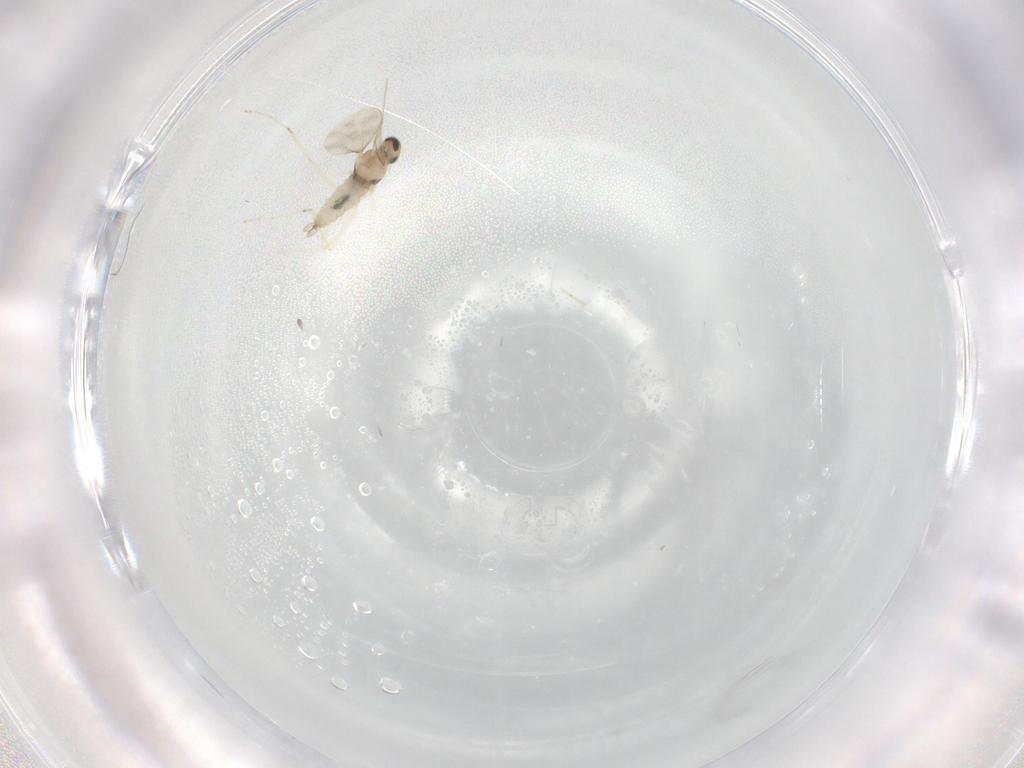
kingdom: Animalia
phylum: Arthropoda
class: Insecta
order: Diptera
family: Cecidomyiidae
